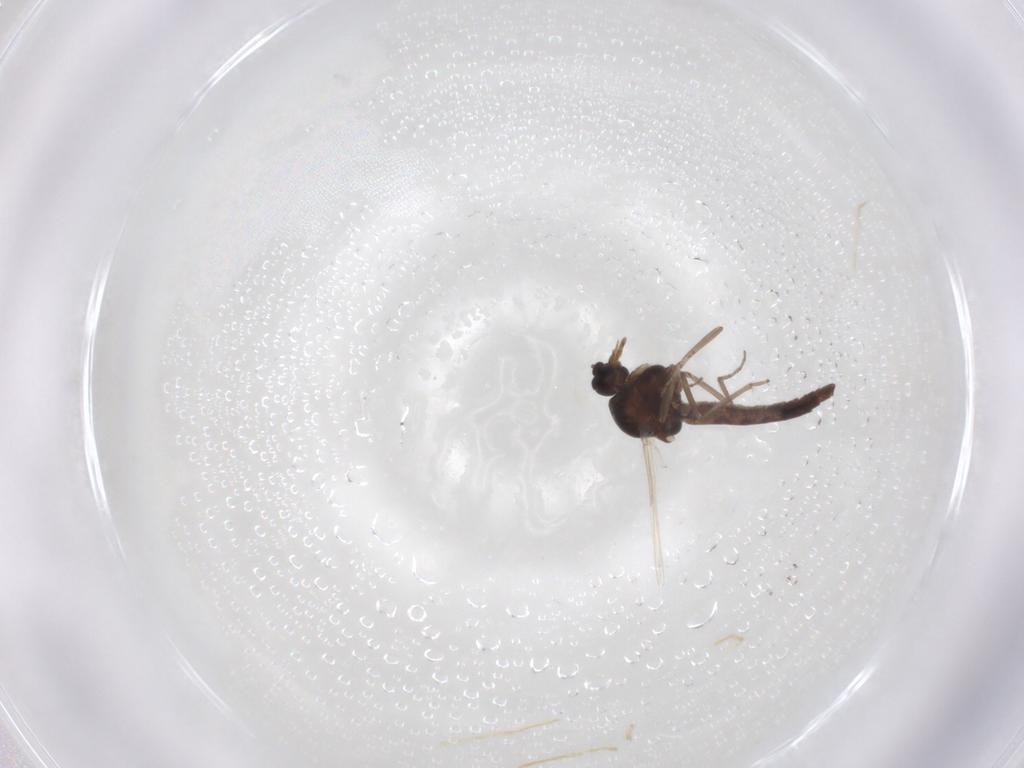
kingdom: Animalia
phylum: Arthropoda
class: Insecta
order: Diptera
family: Ceratopogonidae
